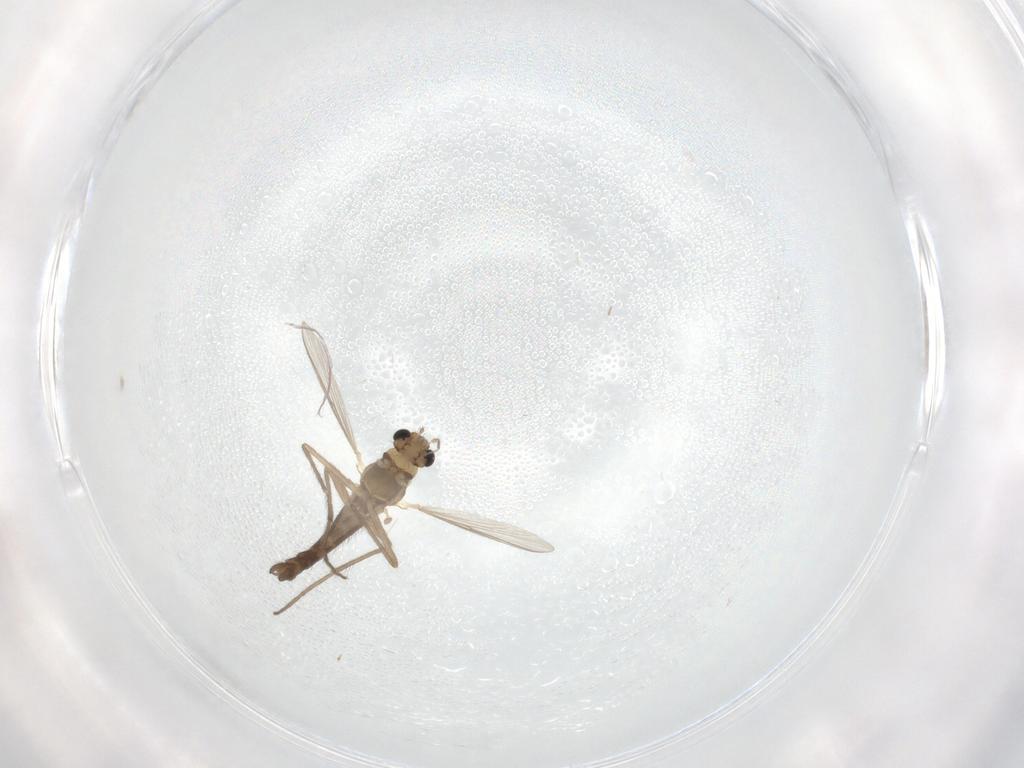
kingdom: Animalia
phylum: Arthropoda
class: Insecta
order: Diptera
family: Chironomidae
